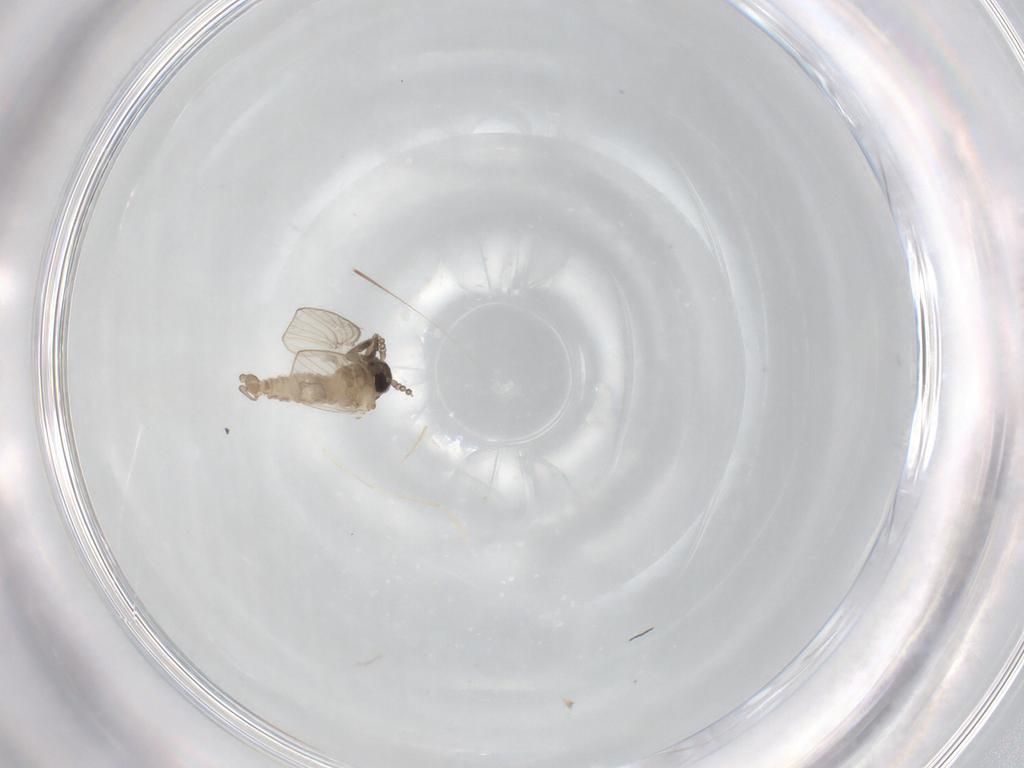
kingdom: Animalia
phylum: Arthropoda
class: Insecta
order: Diptera
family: Psychodidae
